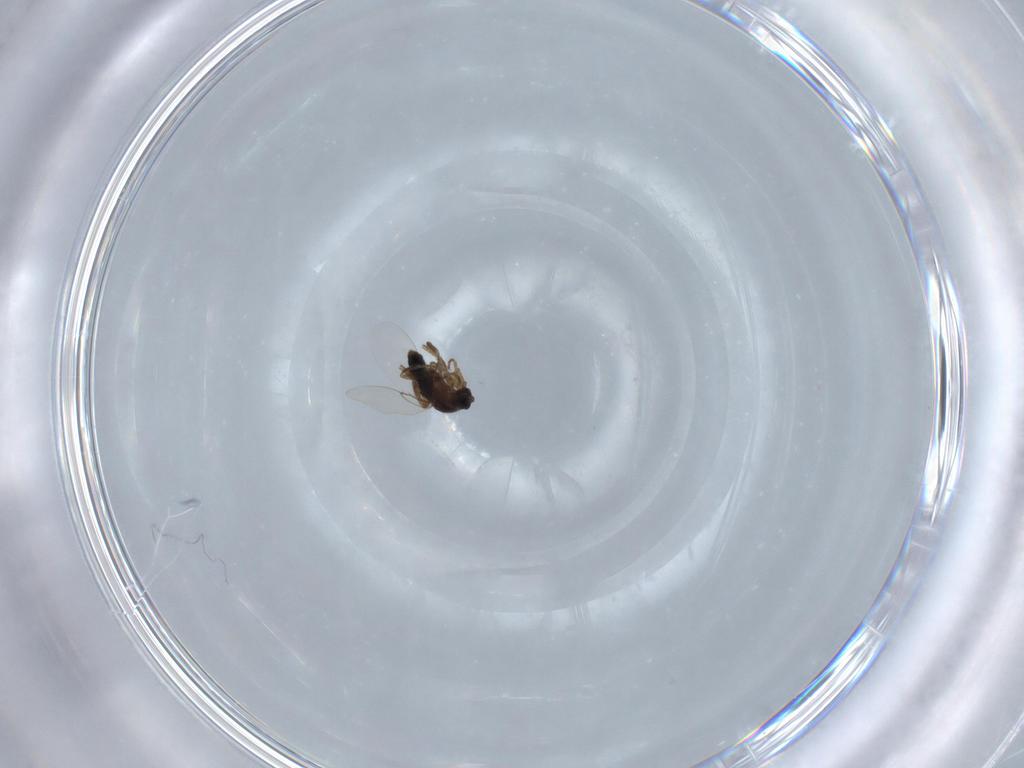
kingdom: Animalia
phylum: Arthropoda
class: Insecta
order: Diptera
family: Phoridae
